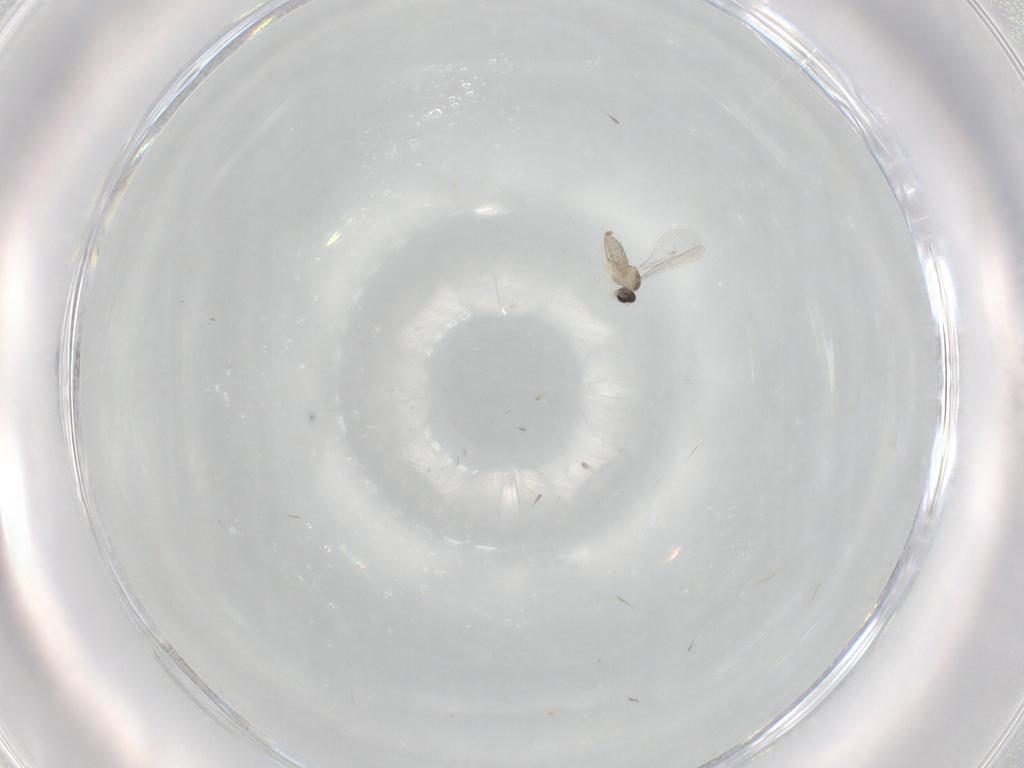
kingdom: Animalia
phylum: Arthropoda
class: Insecta
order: Diptera
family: Cecidomyiidae
